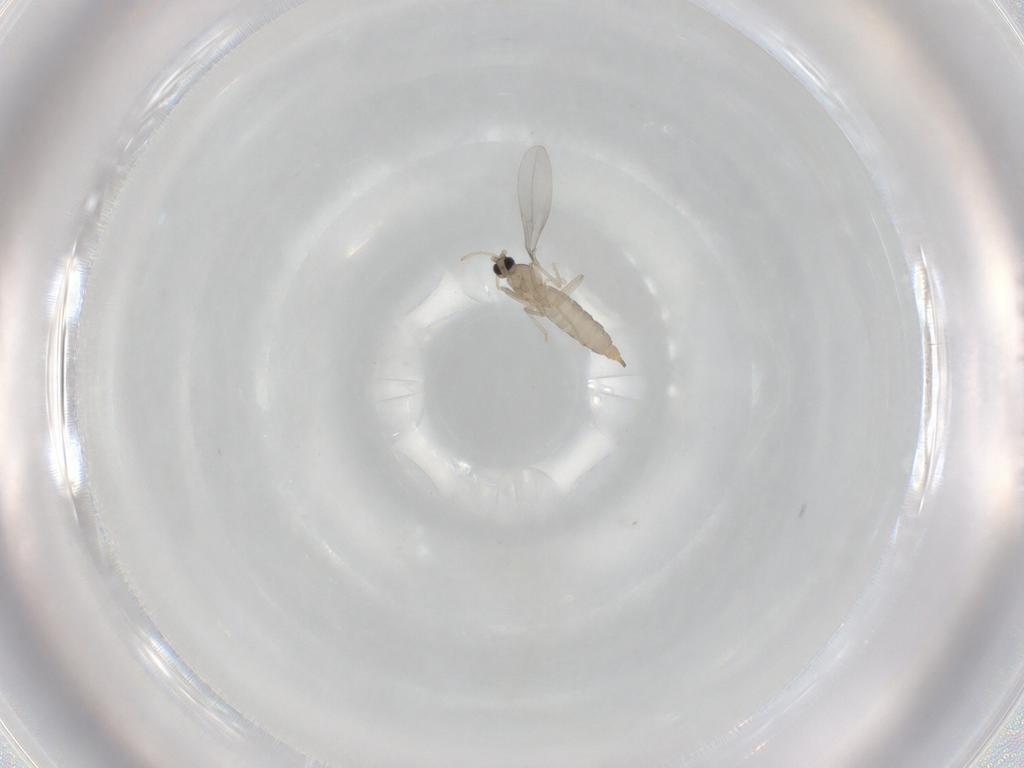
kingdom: Animalia
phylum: Arthropoda
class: Insecta
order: Diptera
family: Cecidomyiidae
